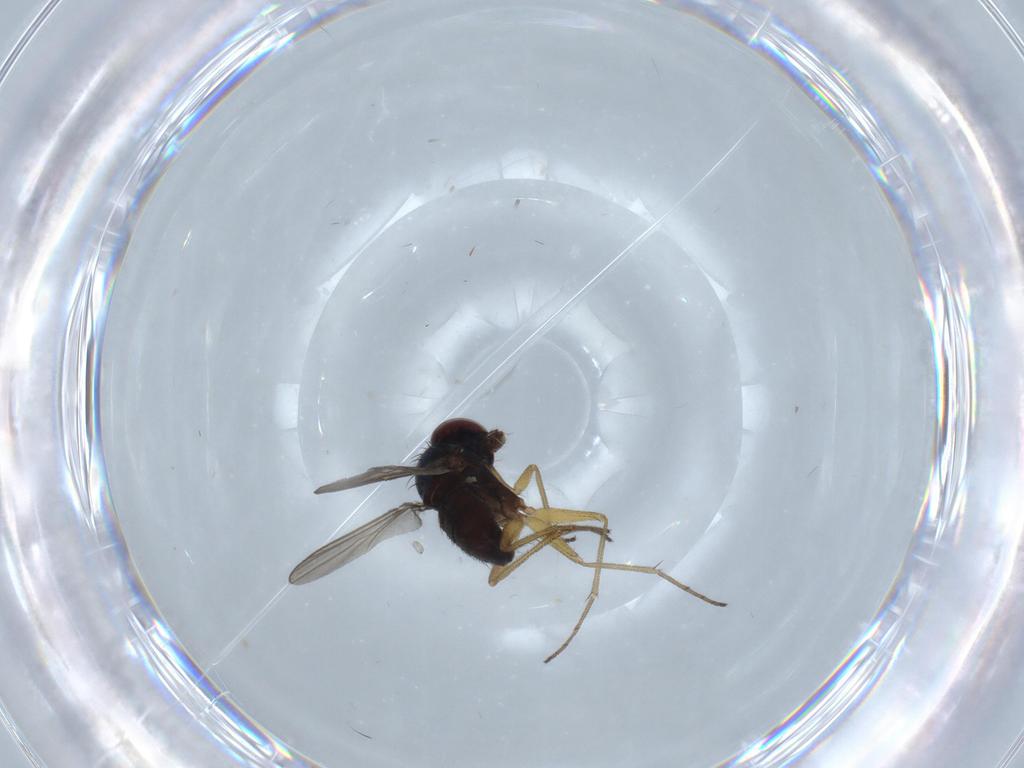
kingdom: Animalia
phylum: Arthropoda
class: Insecta
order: Diptera
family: Dolichopodidae
